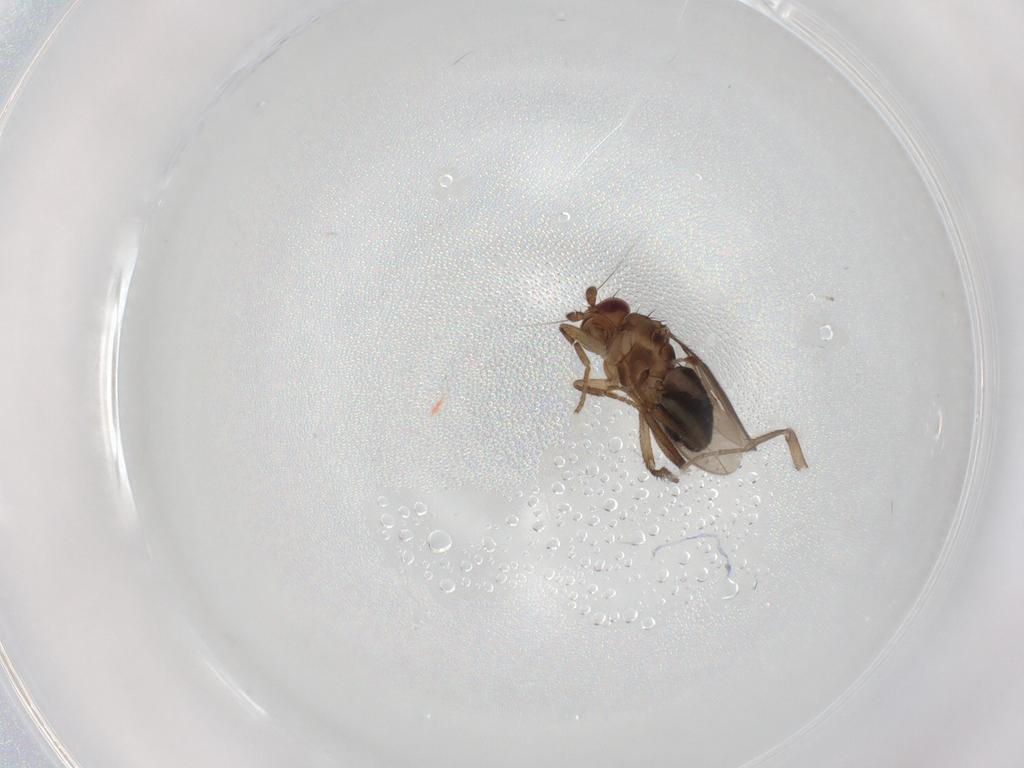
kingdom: Animalia
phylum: Arthropoda
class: Insecta
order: Diptera
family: Sphaeroceridae
